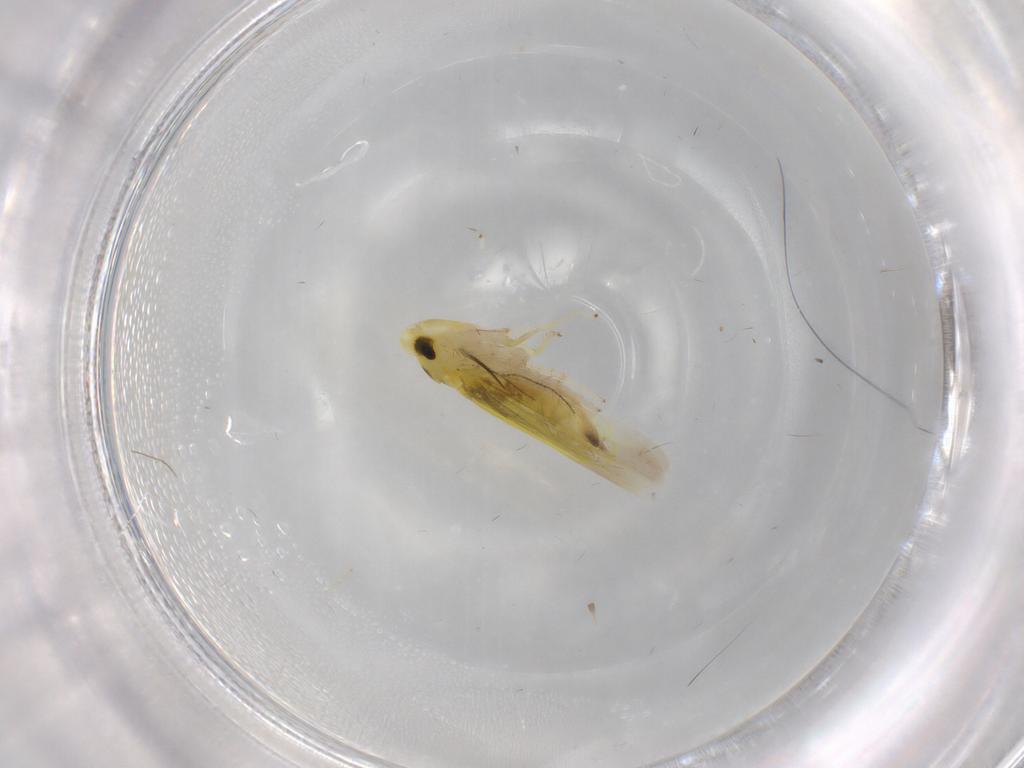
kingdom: Animalia
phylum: Arthropoda
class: Insecta
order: Hemiptera
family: Cicadellidae
